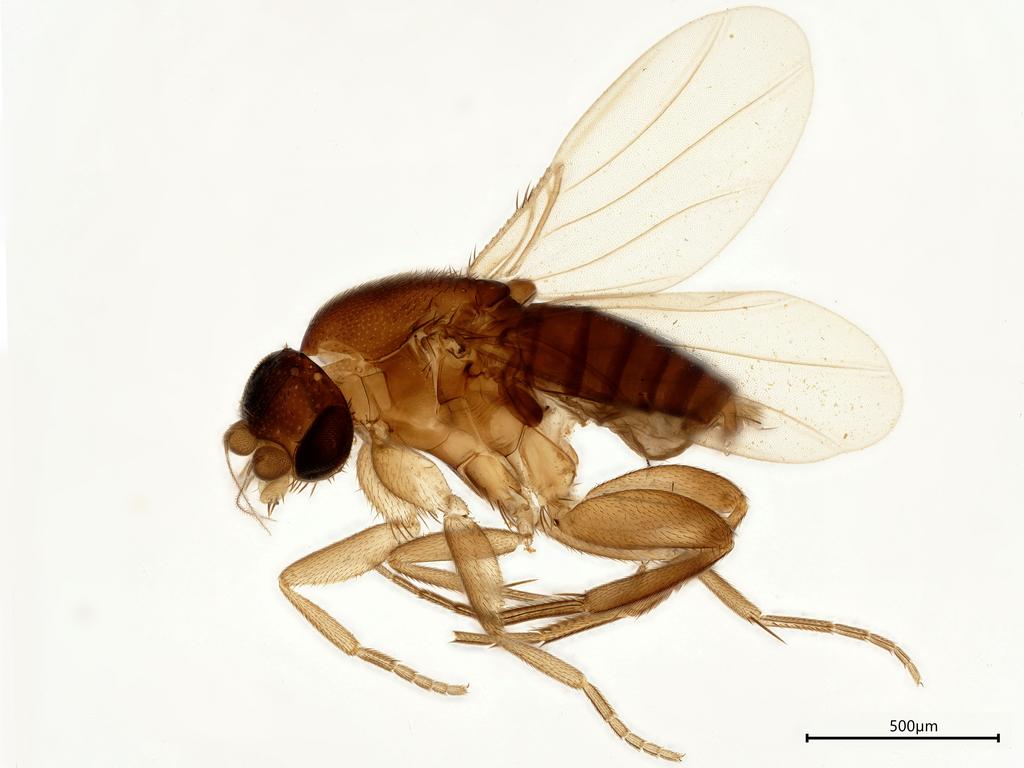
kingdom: Animalia
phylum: Arthropoda
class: Insecta
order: Diptera
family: Phoridae
